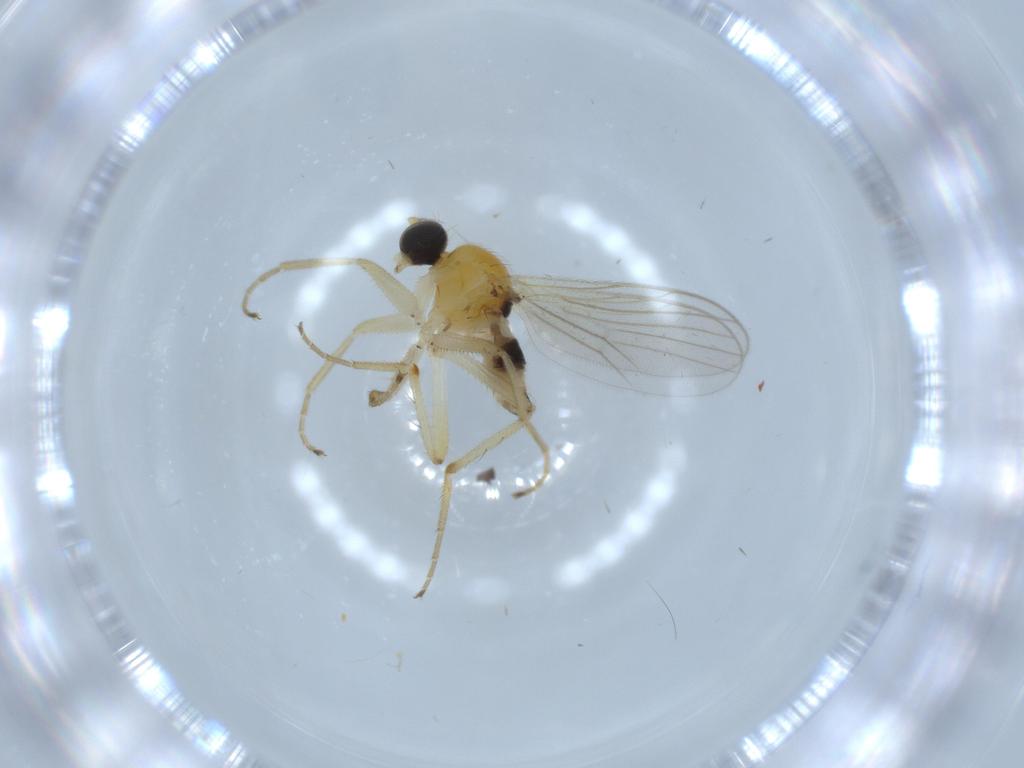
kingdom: Animalia
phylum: Arthropoda
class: Insecta
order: Diptera
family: Hybotidae
